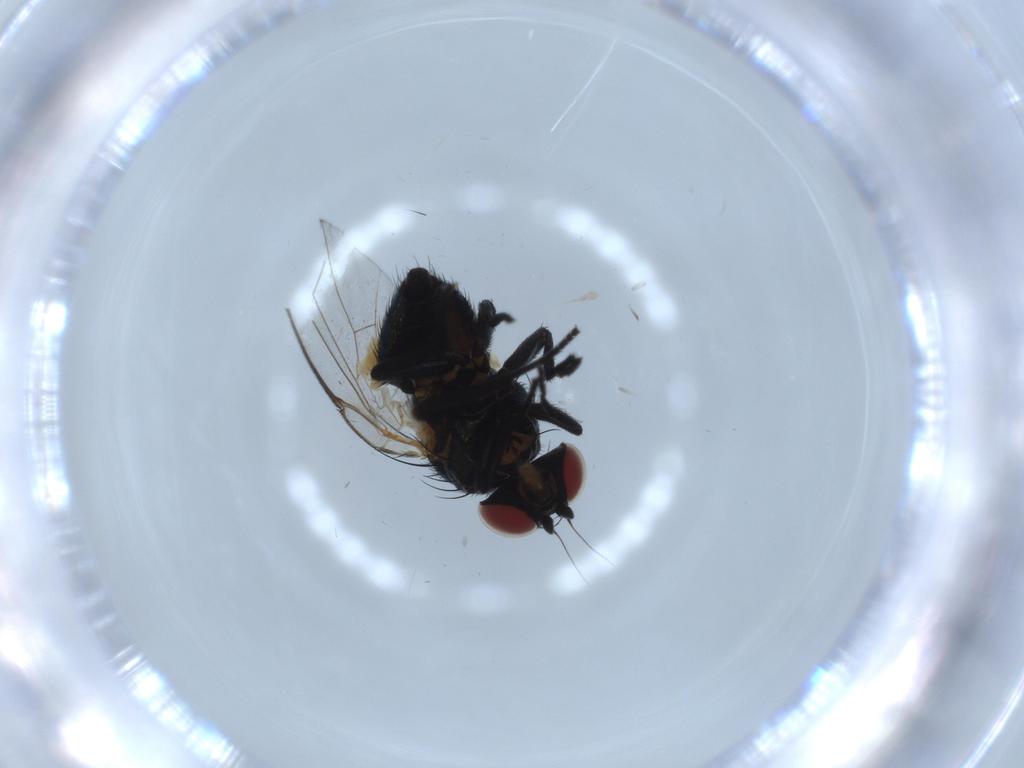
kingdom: Animalia
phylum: Arthropoda
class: Insecta
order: Diptera
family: Agromyzidae
